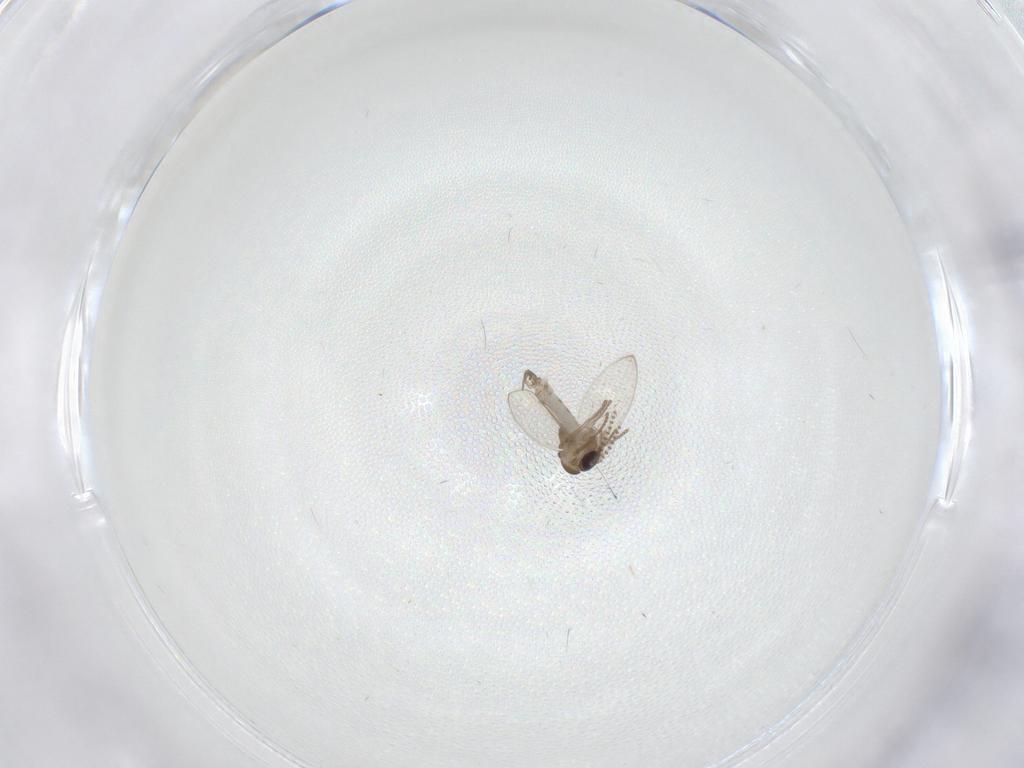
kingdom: Animalia
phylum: Arthropoda
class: Insecta
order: Diptera
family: Psychodidae
